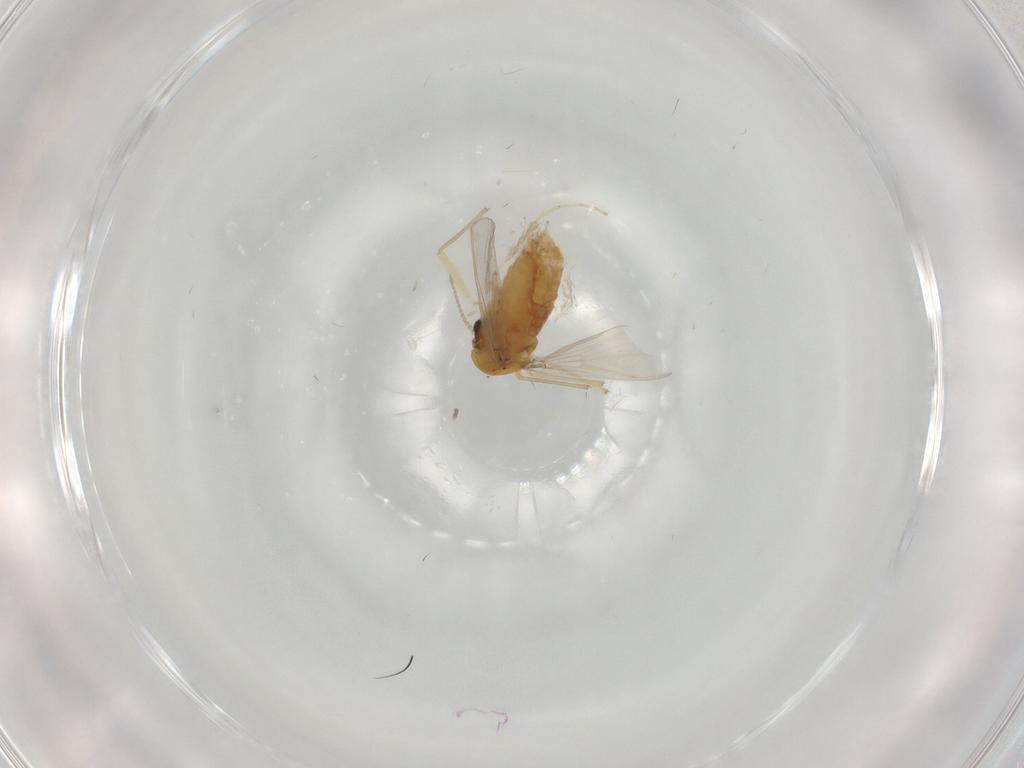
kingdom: Animalia
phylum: Arthropoda
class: Insecta
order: Diptera
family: Chironomidae
